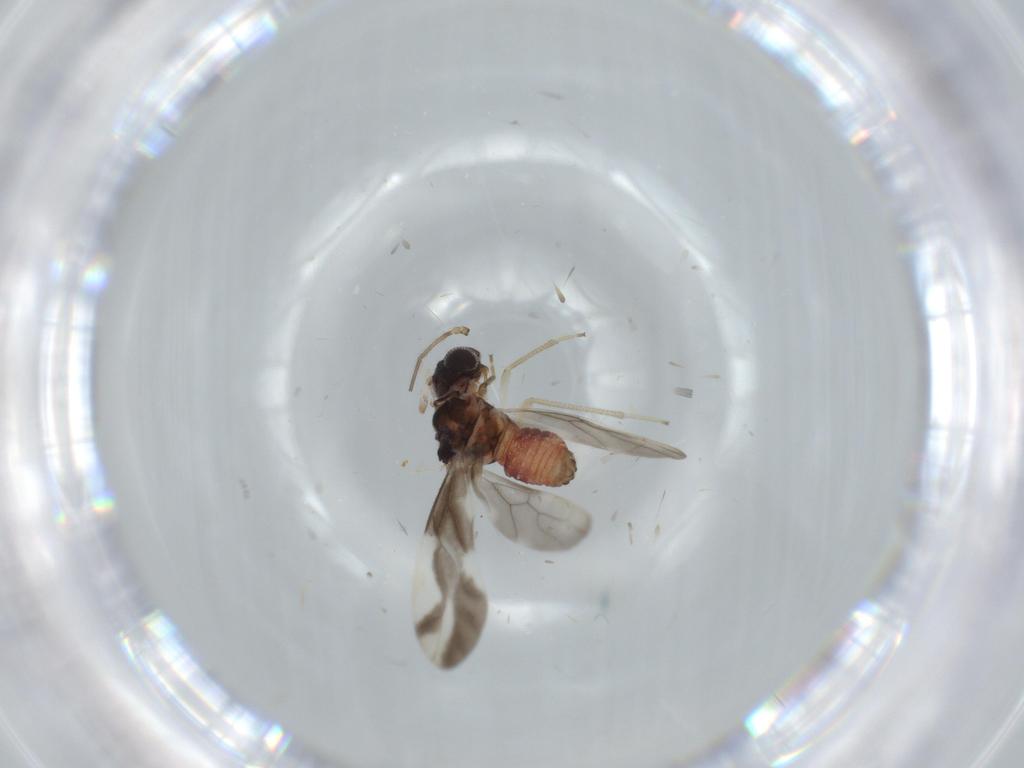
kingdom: Animalia
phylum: Arthropoda
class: Insecta
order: Psocodea
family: Caeciliusidae
